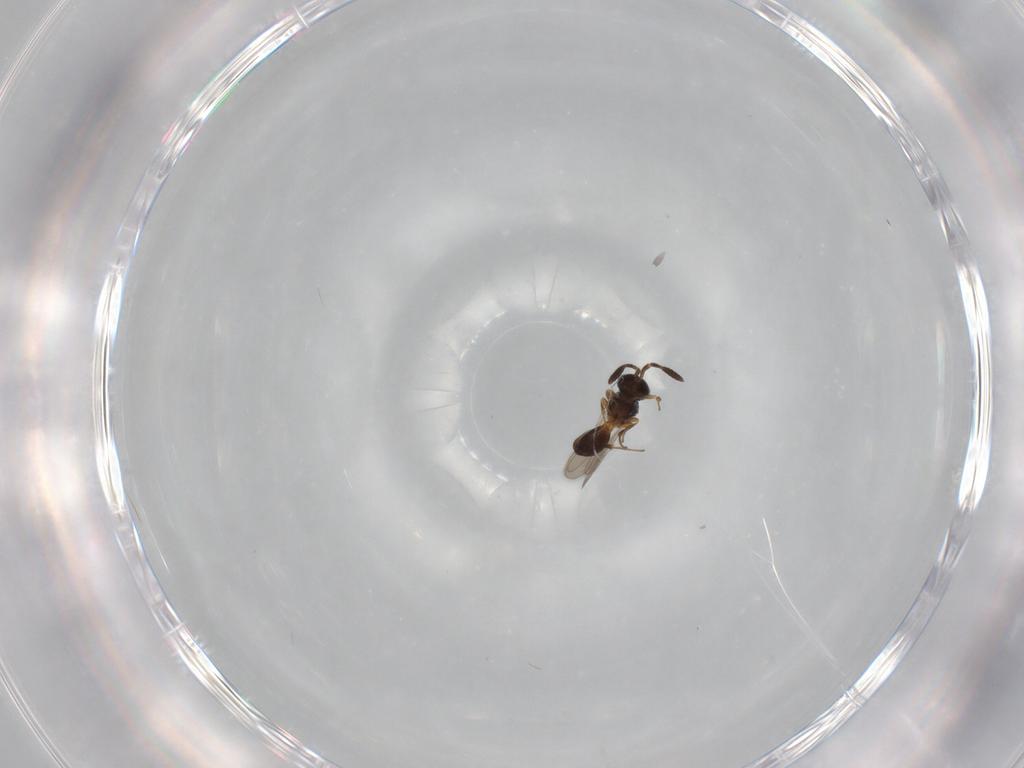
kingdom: Animalia
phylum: Arthropoda
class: Insecta
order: Hymenoptera
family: Scelionidae
